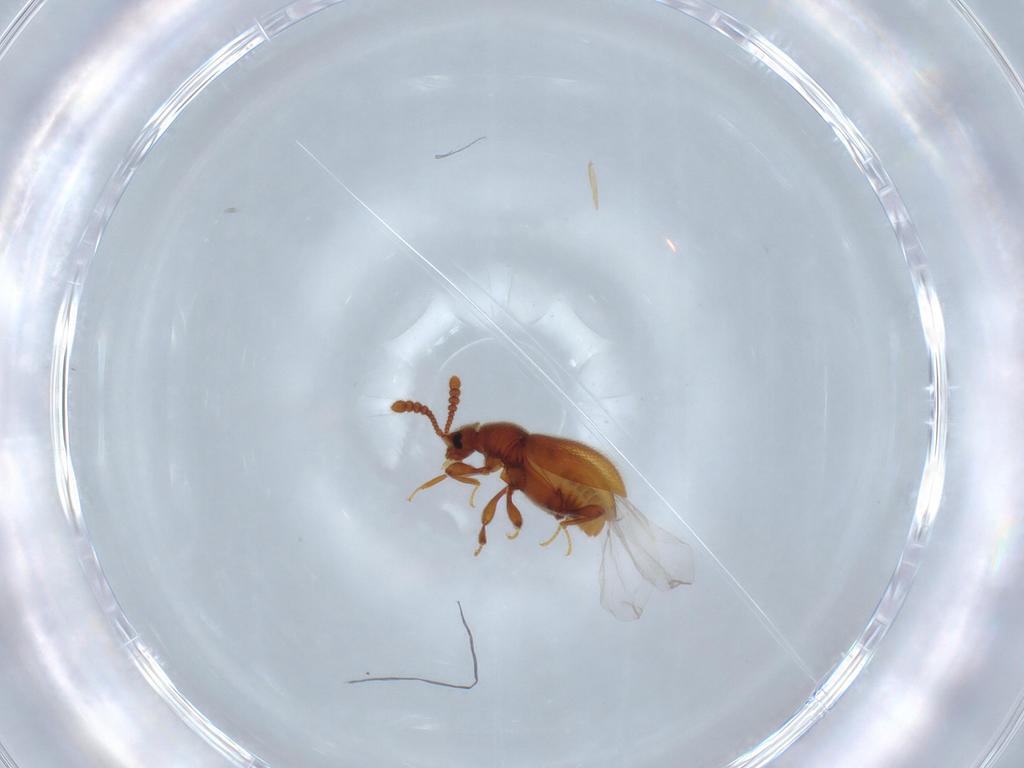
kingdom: Animalia
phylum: Arthropoda
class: Insecta
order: Coleoptera
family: Staphylinidae
